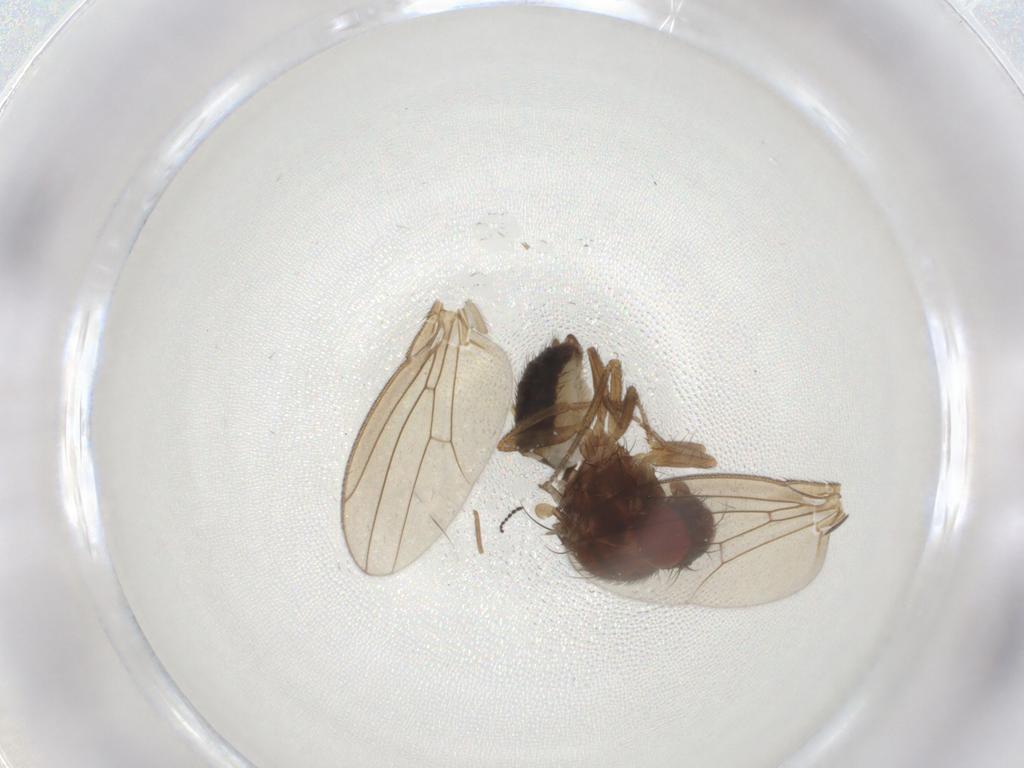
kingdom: Animalia
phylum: Arthropoda
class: Insecta
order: Diptera
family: Drosophilidae
